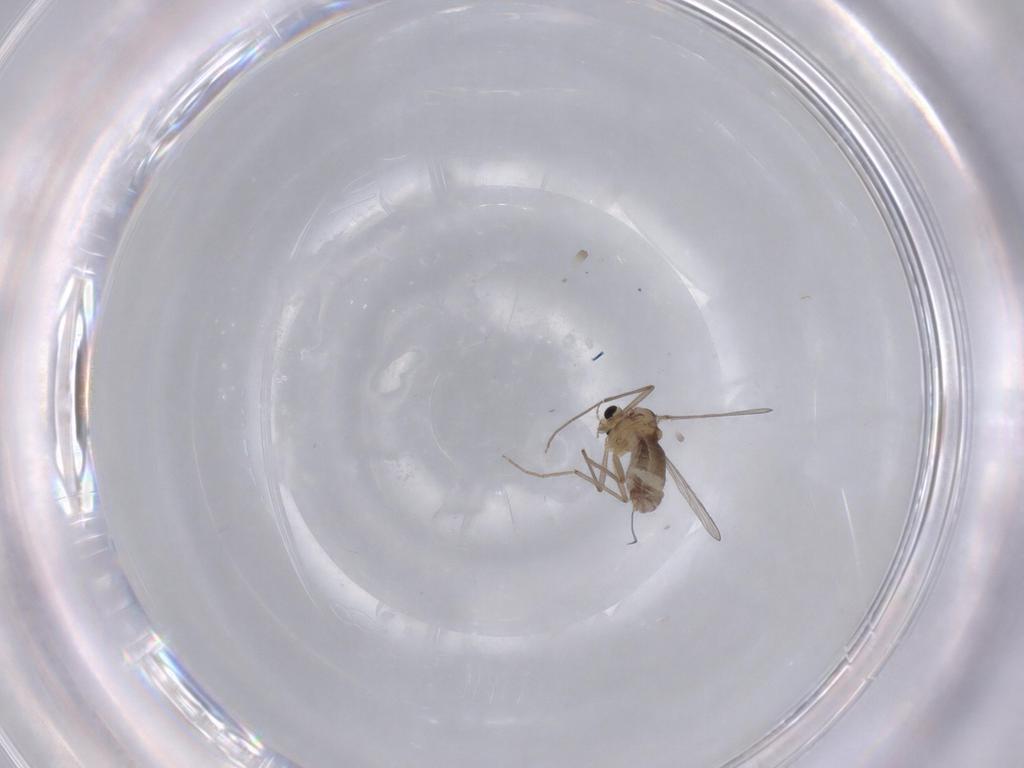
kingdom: Animalia
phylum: Arthropoda
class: Insecta
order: Diptera
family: Chironomidae
